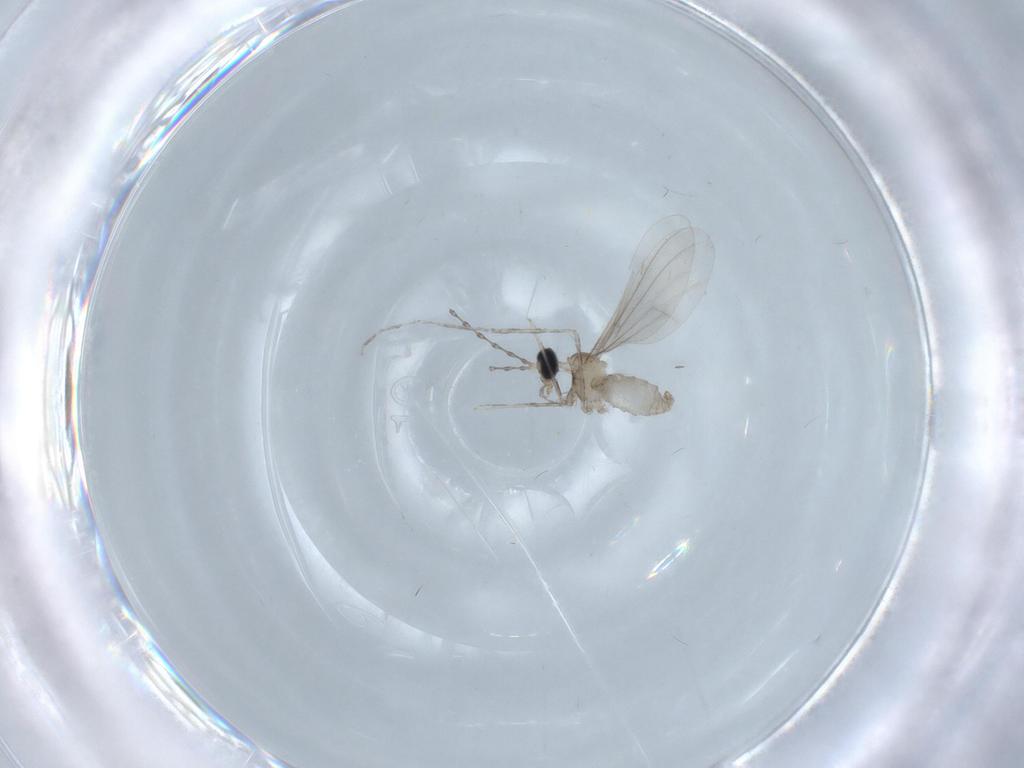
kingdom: Animalia
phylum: Arthropoda
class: Insecta
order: Diptera
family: Cecidomyiidae
